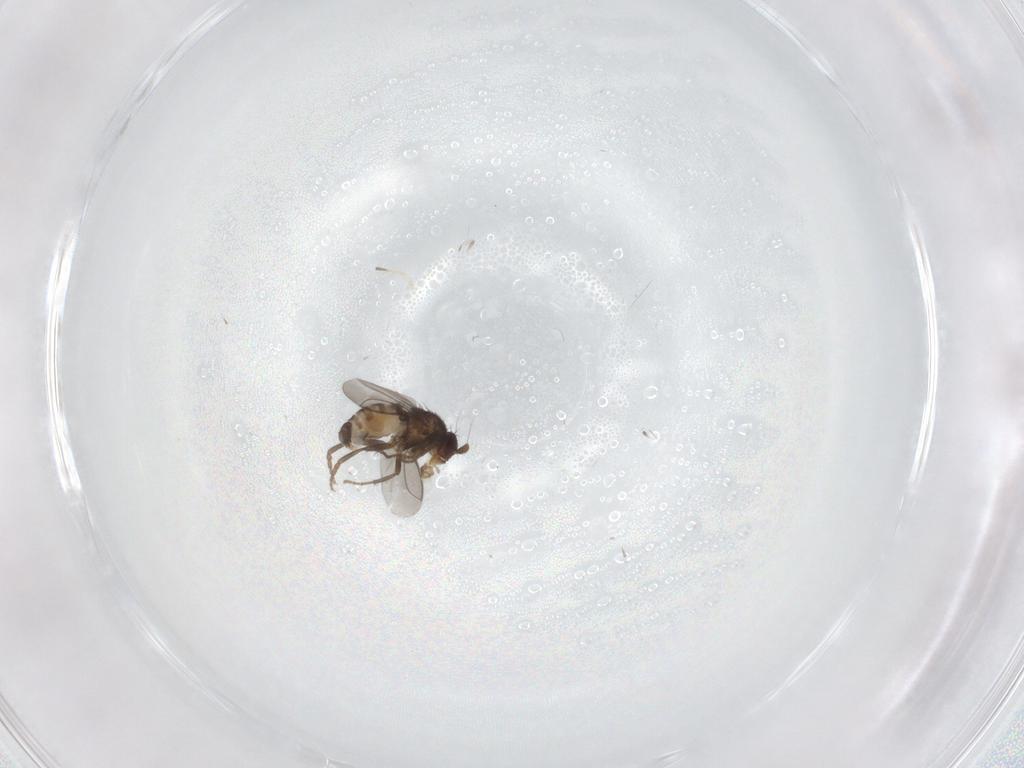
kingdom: Animalia
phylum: Arthropoda
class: Insecta
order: Diptera
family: Sphaeroceridae
